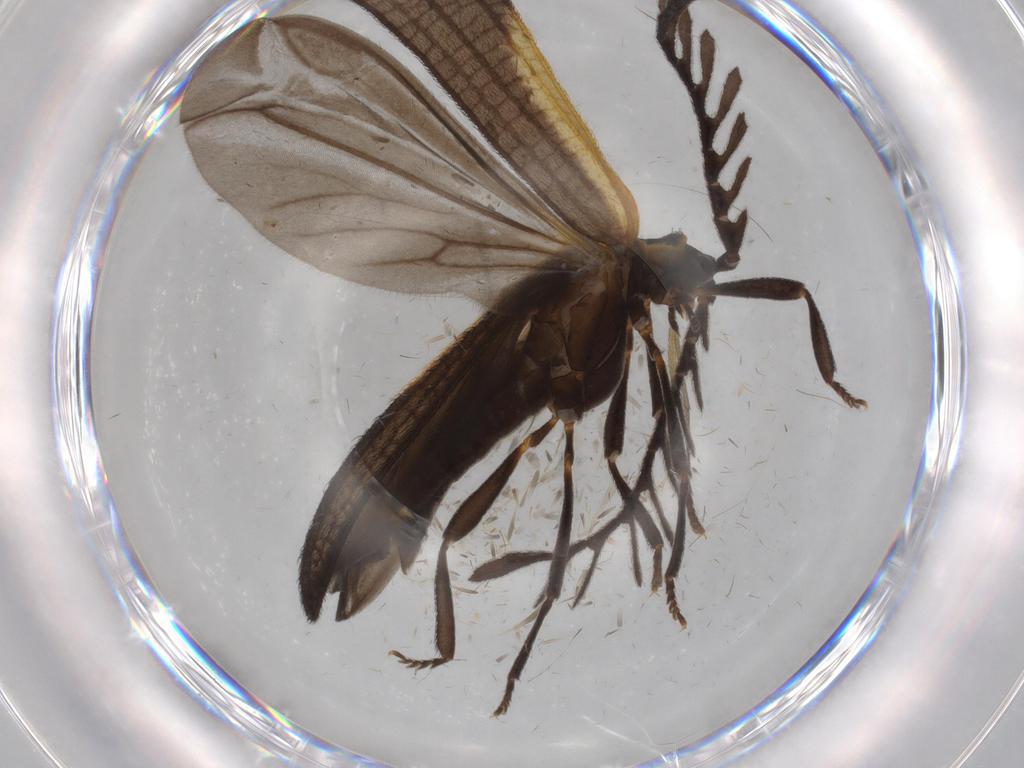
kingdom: Animalia
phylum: Arthropoda
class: Insecta
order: Coleoptera
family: Lycidae
